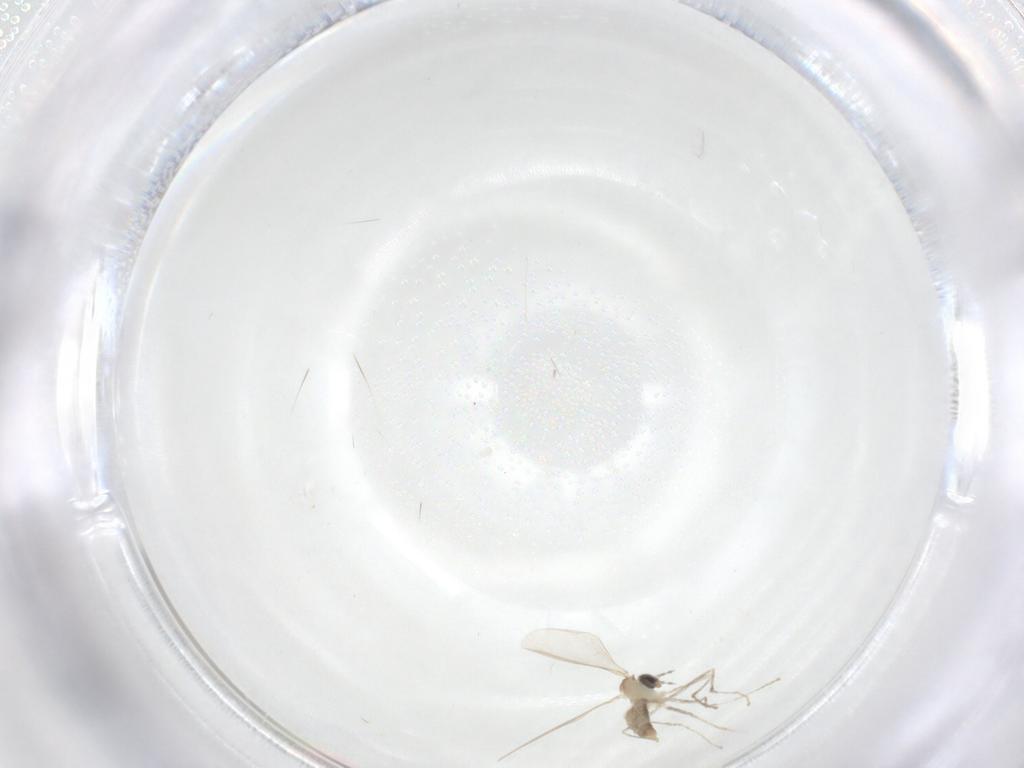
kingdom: Animalia
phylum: Arthropoda
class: Insecta
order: Diptera
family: Cecidomyiidae
